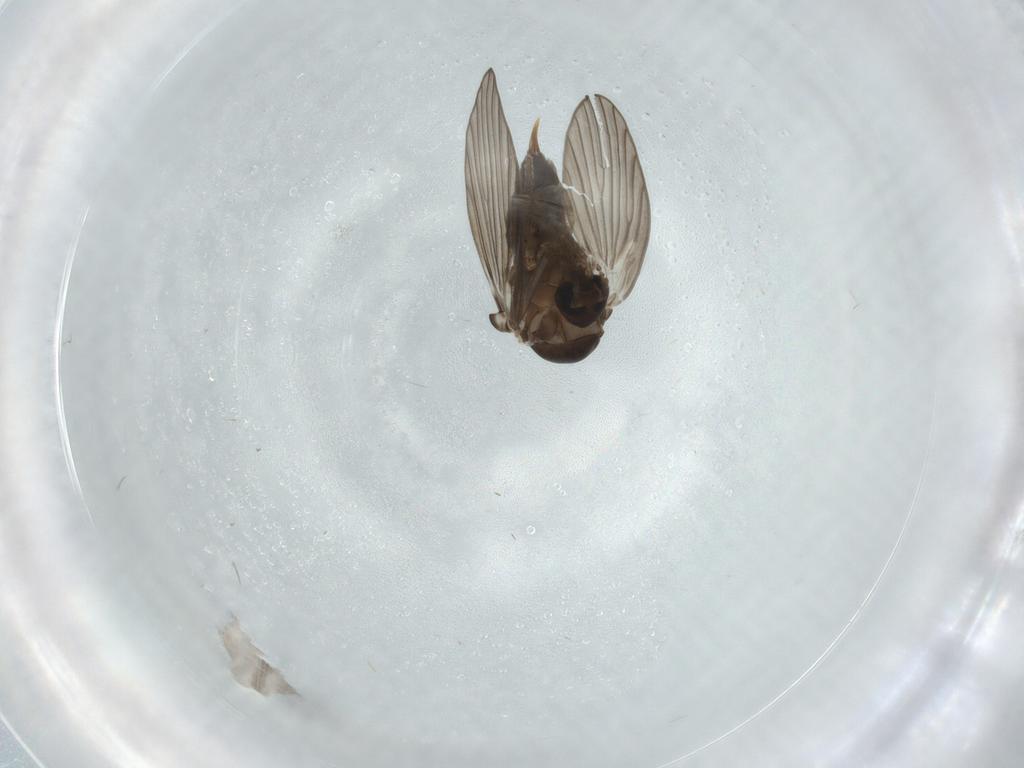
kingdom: Animalia
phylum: Arthropoda
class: Insecta
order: Diptera
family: Psychodidae
